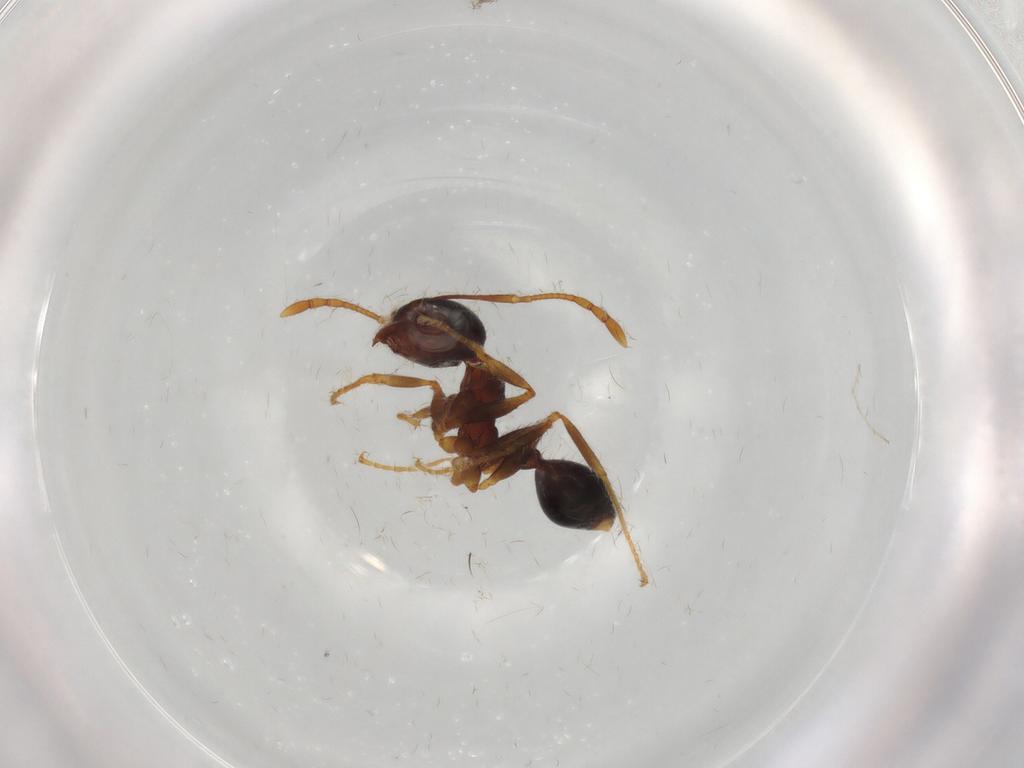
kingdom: Animalia
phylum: Arthropoda
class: Insecta
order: Hymenoptera
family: Formicidae
